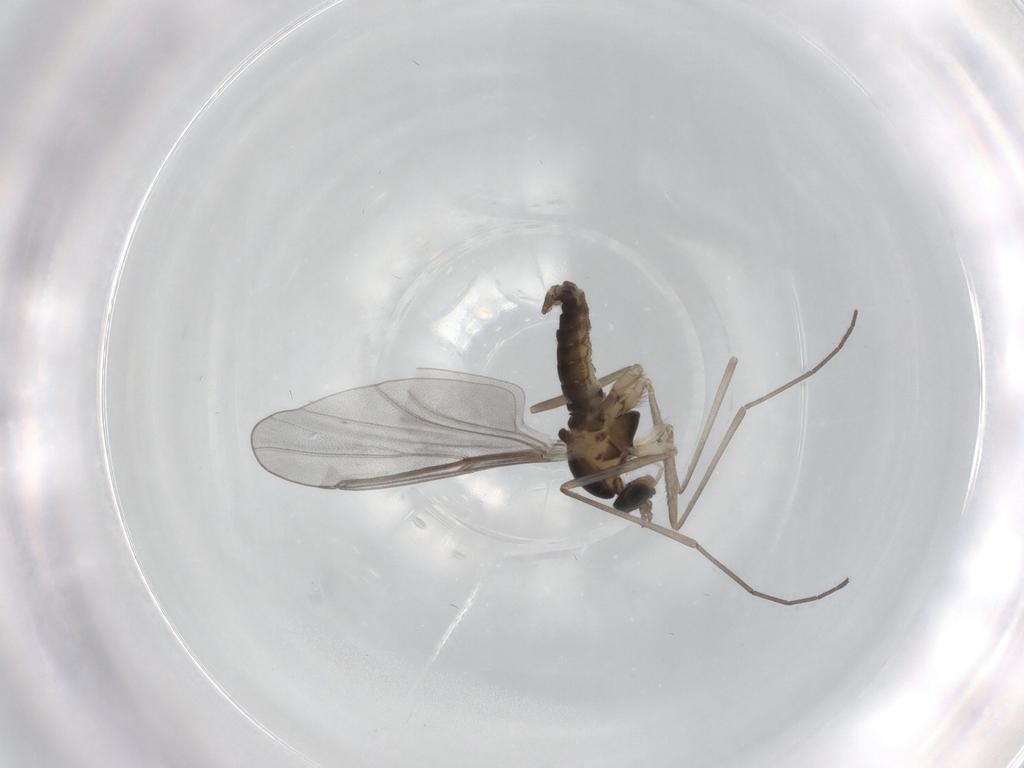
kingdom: Animalia
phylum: Arthropoda
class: Insecta
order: Diptera
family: Cecidomyiidae
